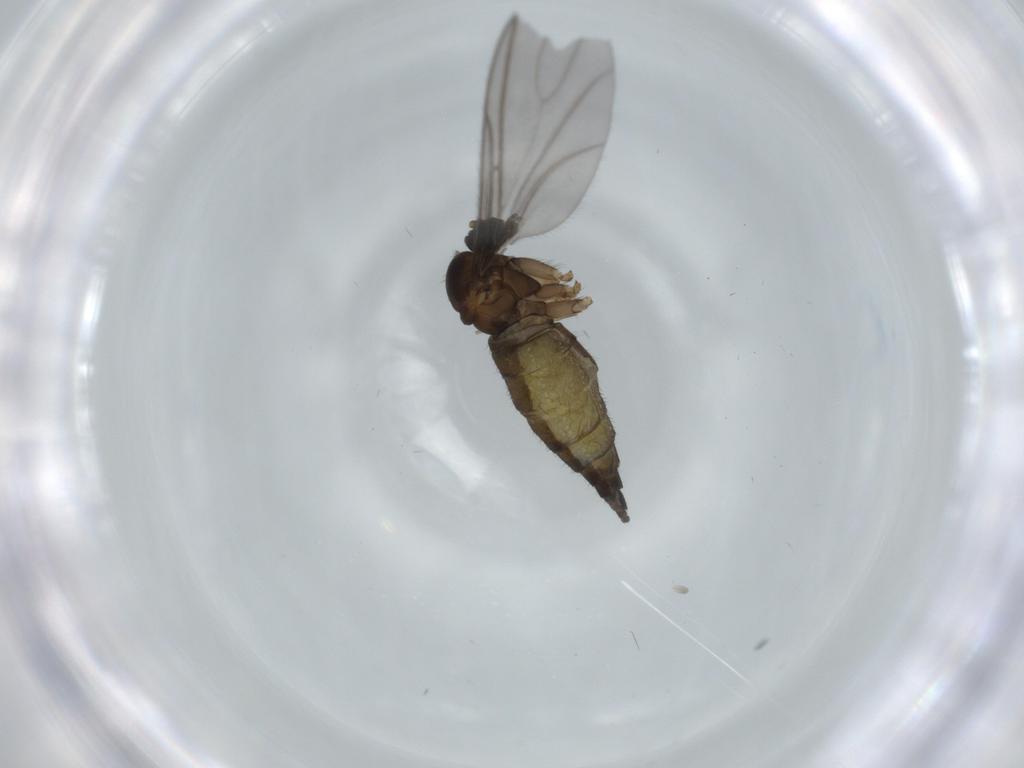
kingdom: Animalia
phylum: Arthropoda
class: Insecta
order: Diptera
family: Sciaridae
